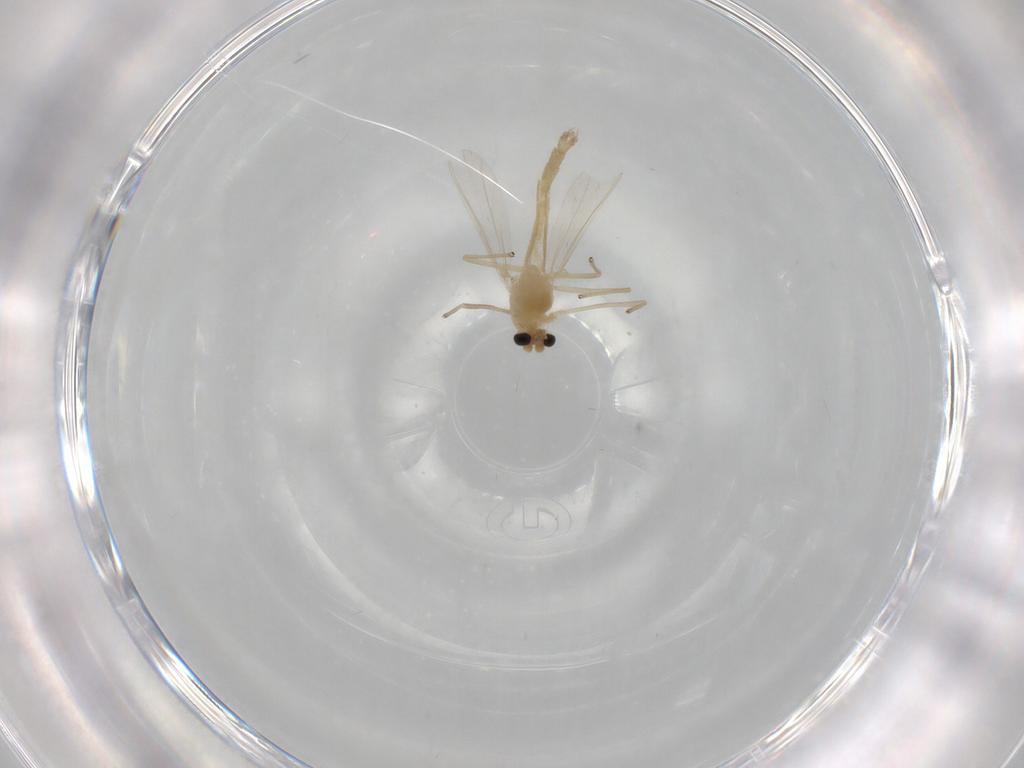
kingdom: Animalia
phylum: Arthropoda
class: Insecta
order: Diptera
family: Chironomidae
